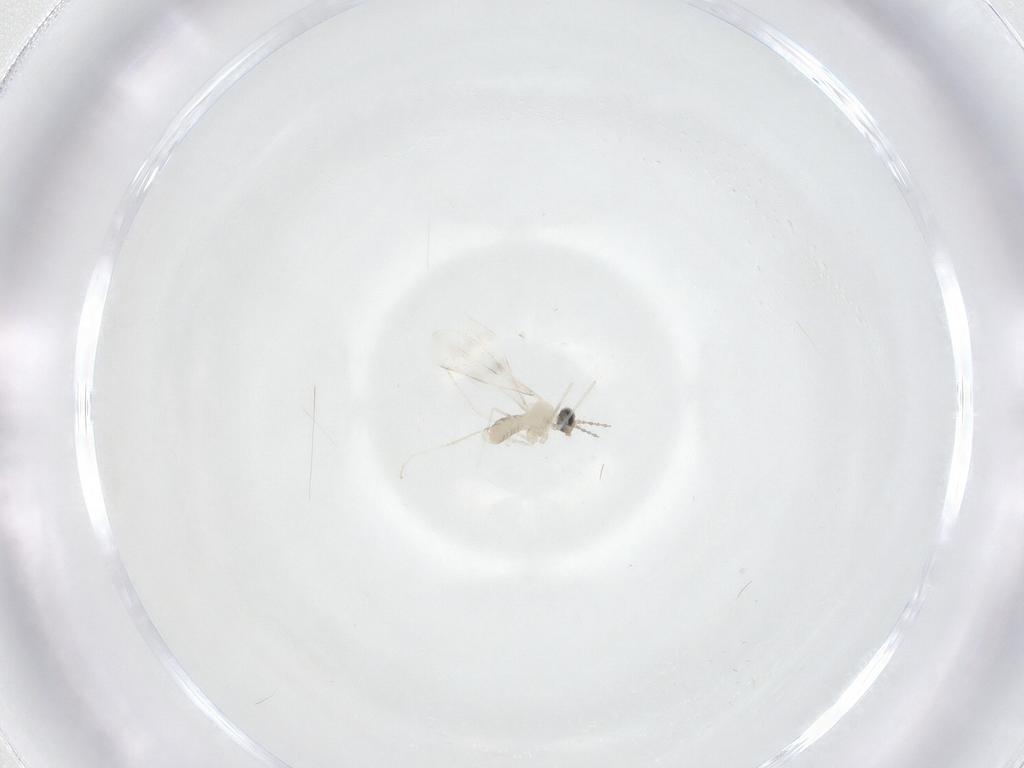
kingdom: Animalia
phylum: Arthropoda
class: Insecta
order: Diptera
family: Cecidomyiidae
